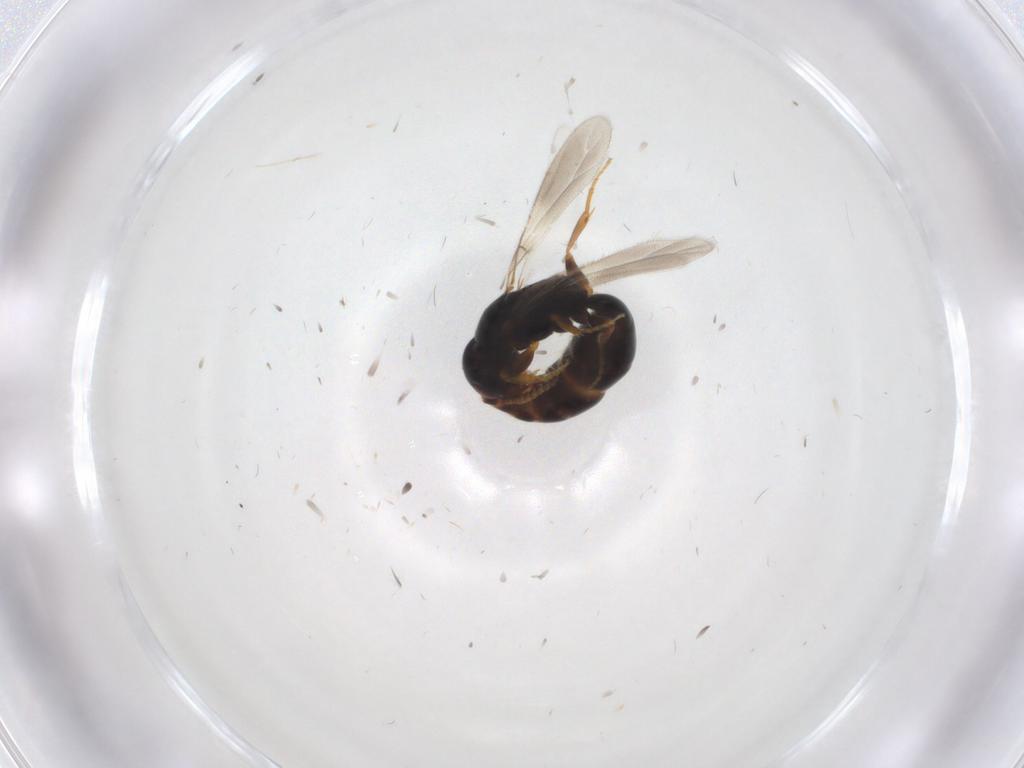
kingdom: Animalia
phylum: Arthropoda
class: Insecta
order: Hymenoptera
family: Bethylidae
